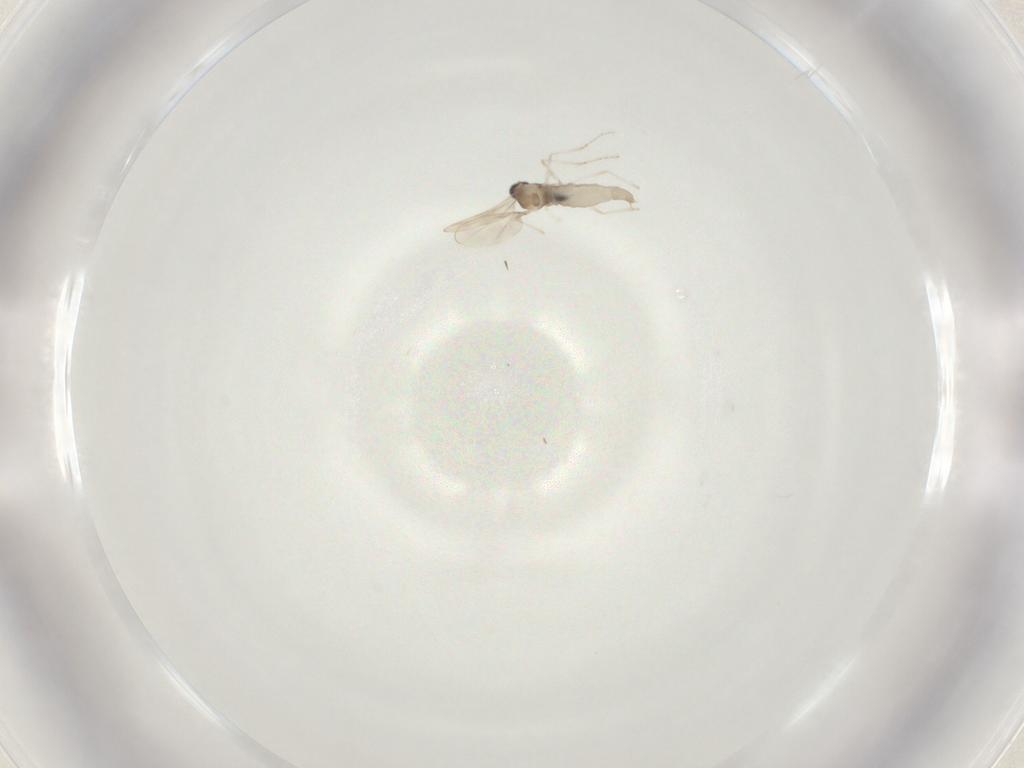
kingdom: Animalia
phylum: Arthropoda
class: Insecta
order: Diptera
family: Cecidomyiidae
